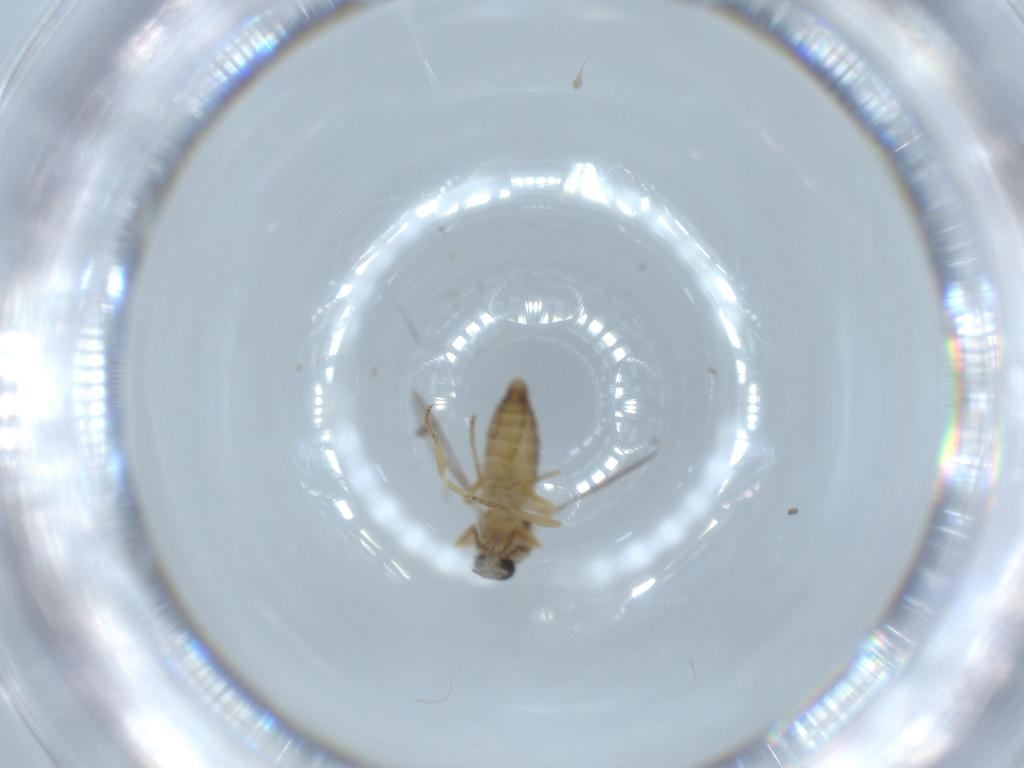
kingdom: Animalia
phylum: Arthropoda
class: Insecta
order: Diptera
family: Ceratopogonidae
